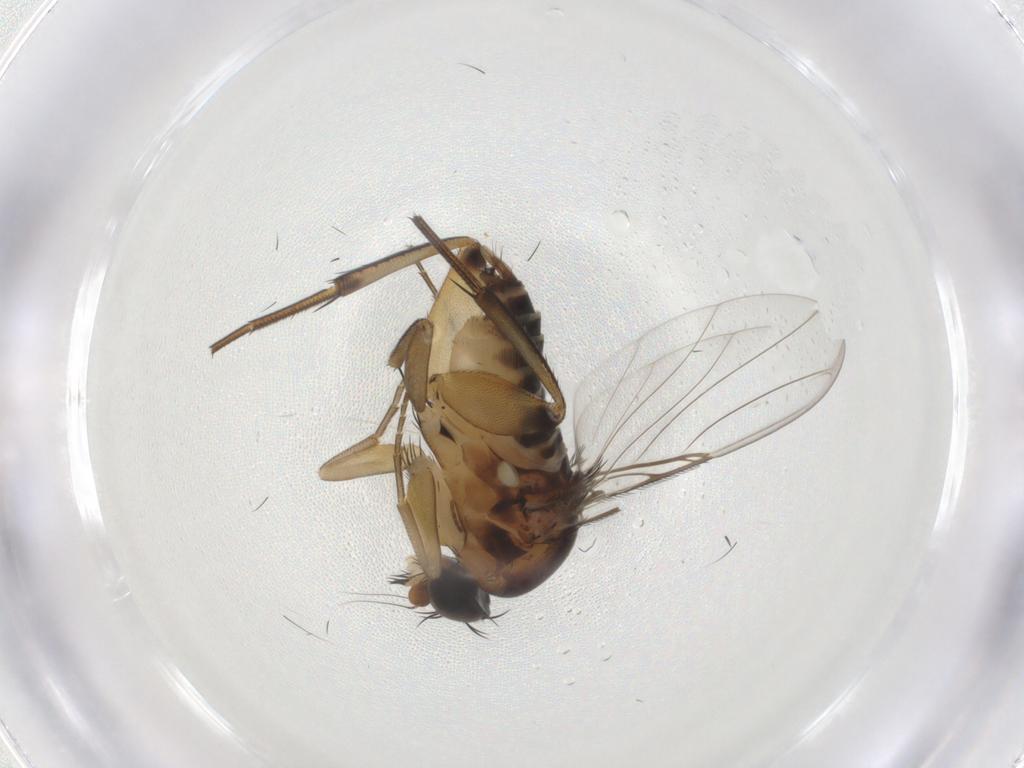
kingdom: Animalia
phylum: Arthropoda
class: Insecta
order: Diptera
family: Phoridae
